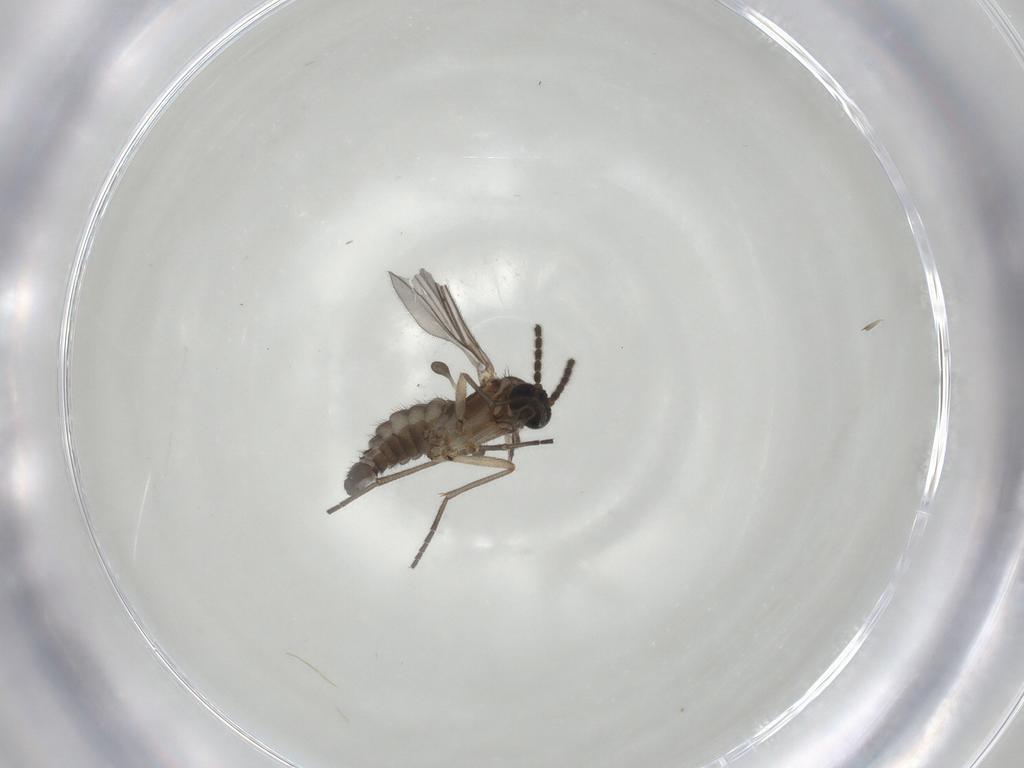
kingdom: Animalia
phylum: Arthropoda
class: Insecta
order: Diptera
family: Sciaridae
